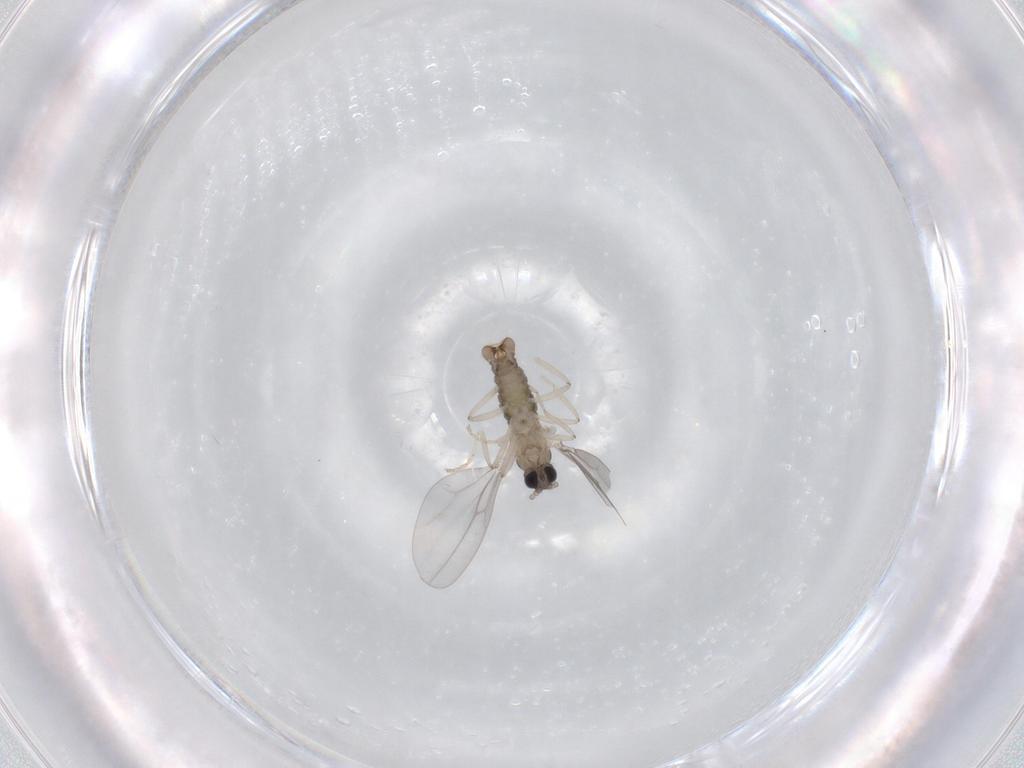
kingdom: Animalia
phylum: Arthropoda
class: Insecta
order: Diptera
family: Cecidomyiidae
